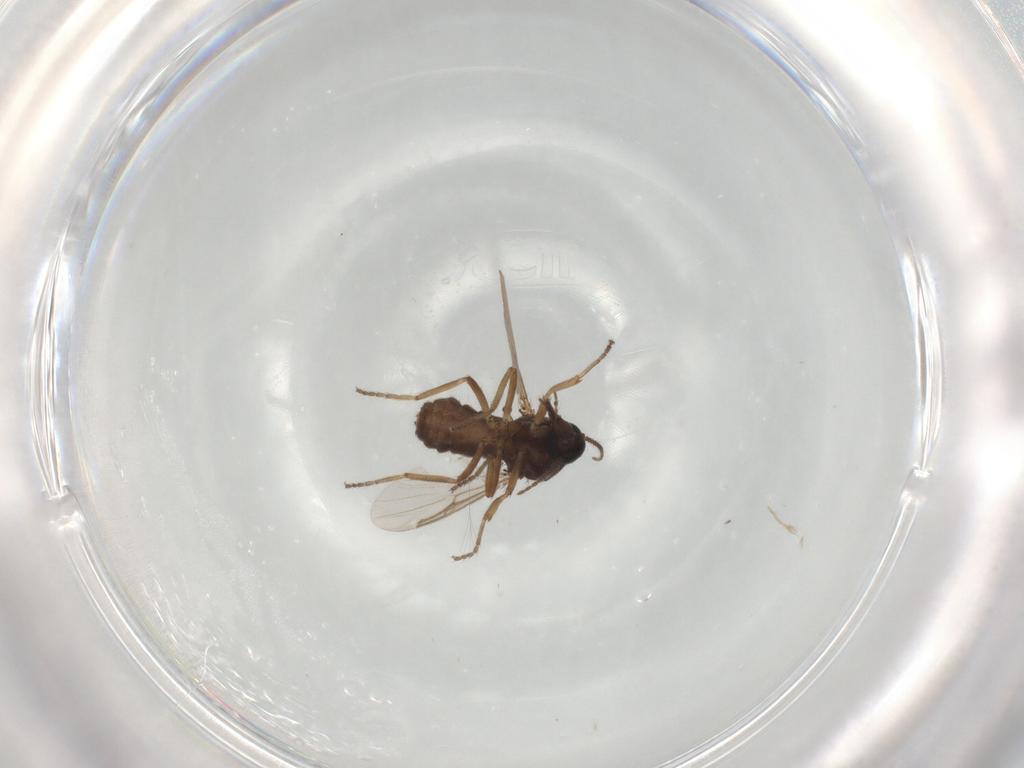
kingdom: Animalia
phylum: Arthropoda
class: Insecta
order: Diptera
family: Ceratopogonidae
